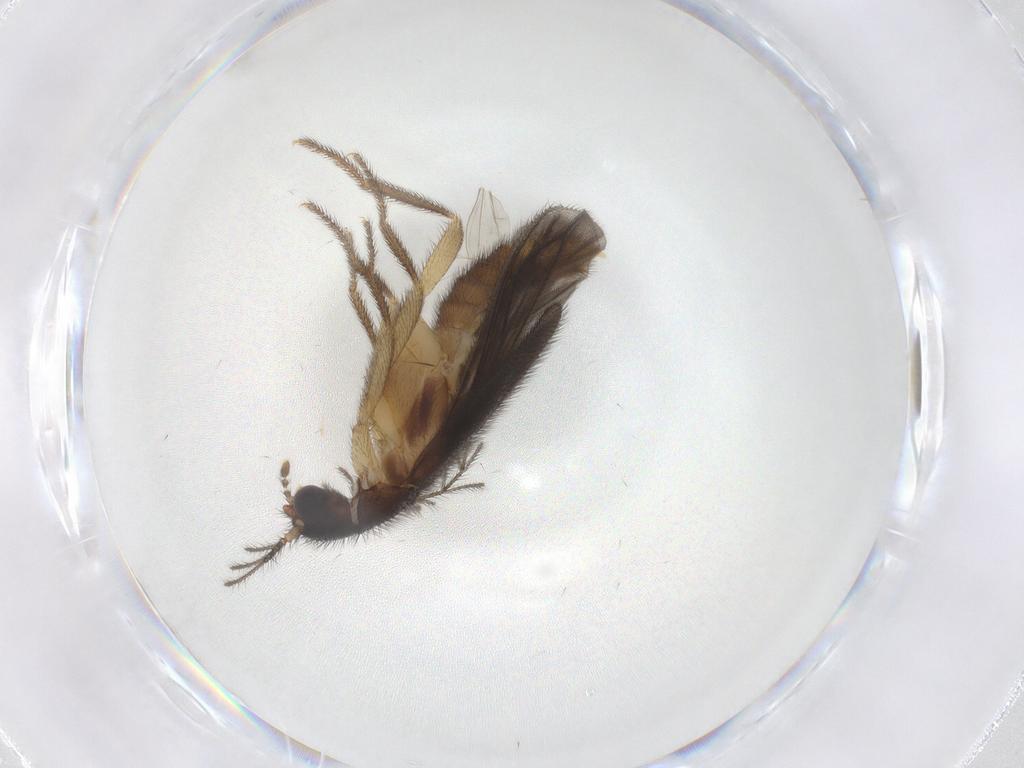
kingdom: Animalia
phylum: Arthropoda
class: Insecta
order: Coleoptera
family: Phengodidae
